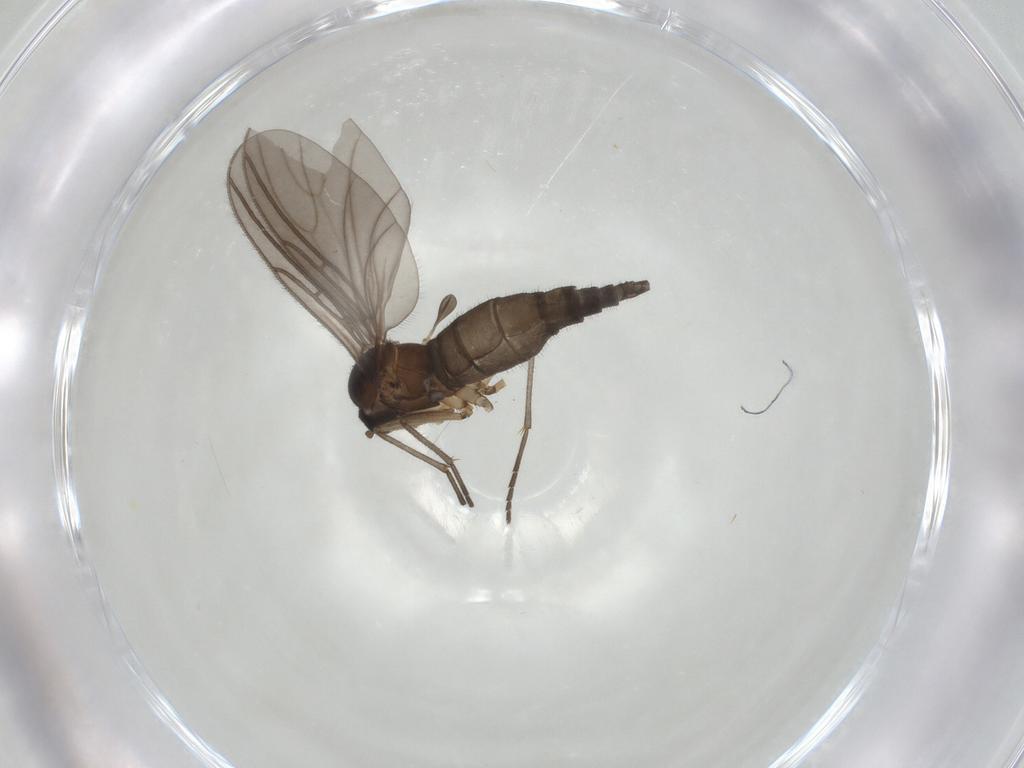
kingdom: Animalia
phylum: Arthropoda
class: Insecta
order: Diptera
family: Sciaridae
